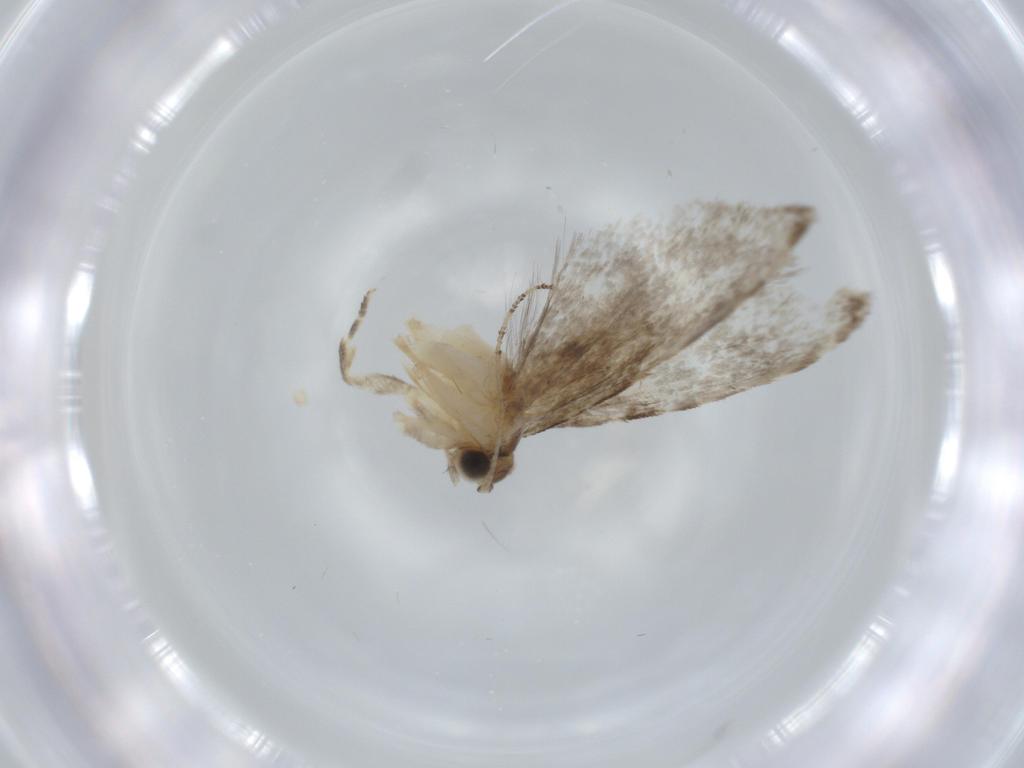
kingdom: Animalia
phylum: Arthropoda
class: Insecta
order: Lepidoptera
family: Tineidae
